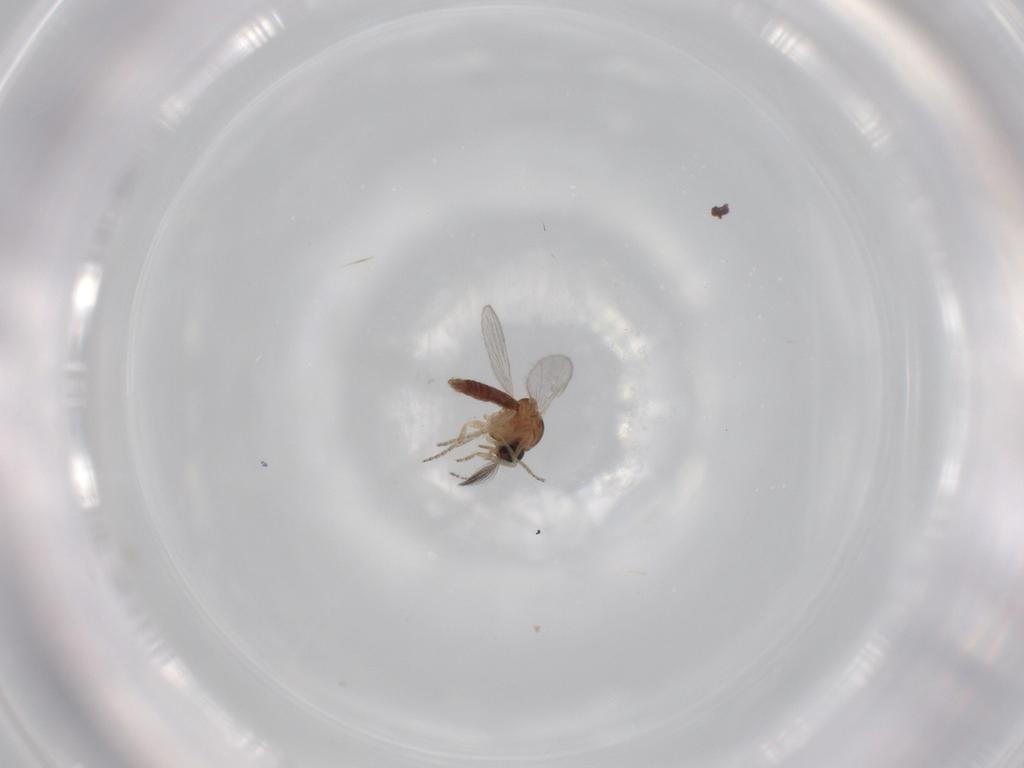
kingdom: Animalia
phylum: Arthropoda
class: Insecta
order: Diptera
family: Ceratopogonidae
